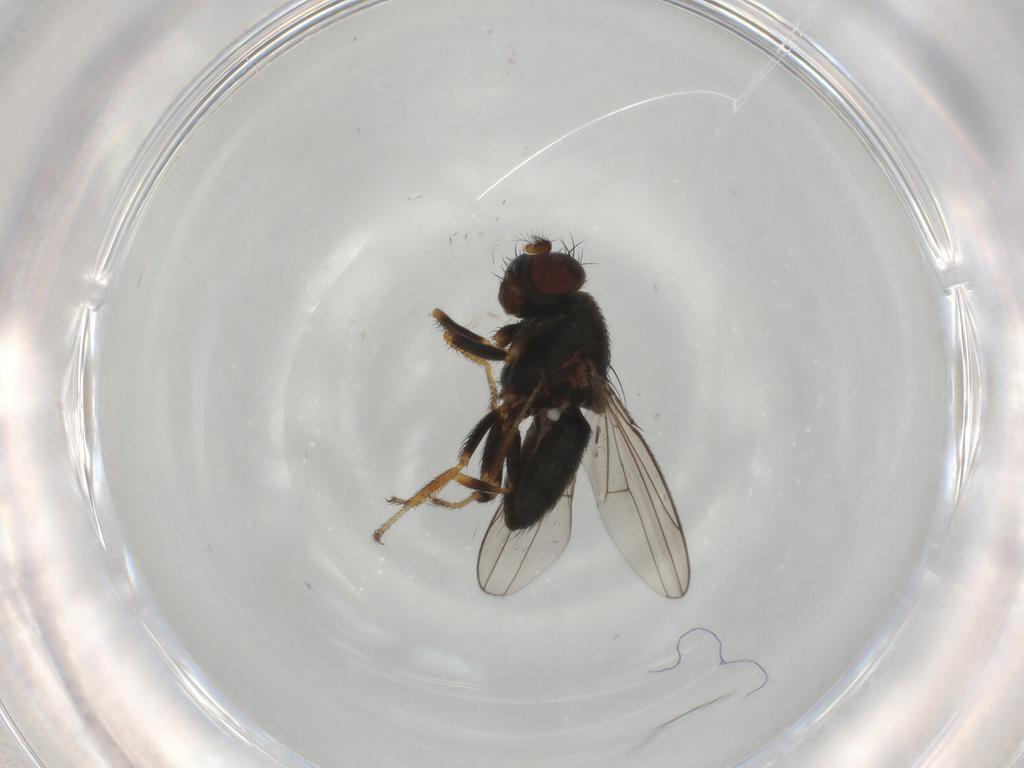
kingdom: Animalia
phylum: Arthropoda
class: Insecta
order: Diptera
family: Ephydridae
